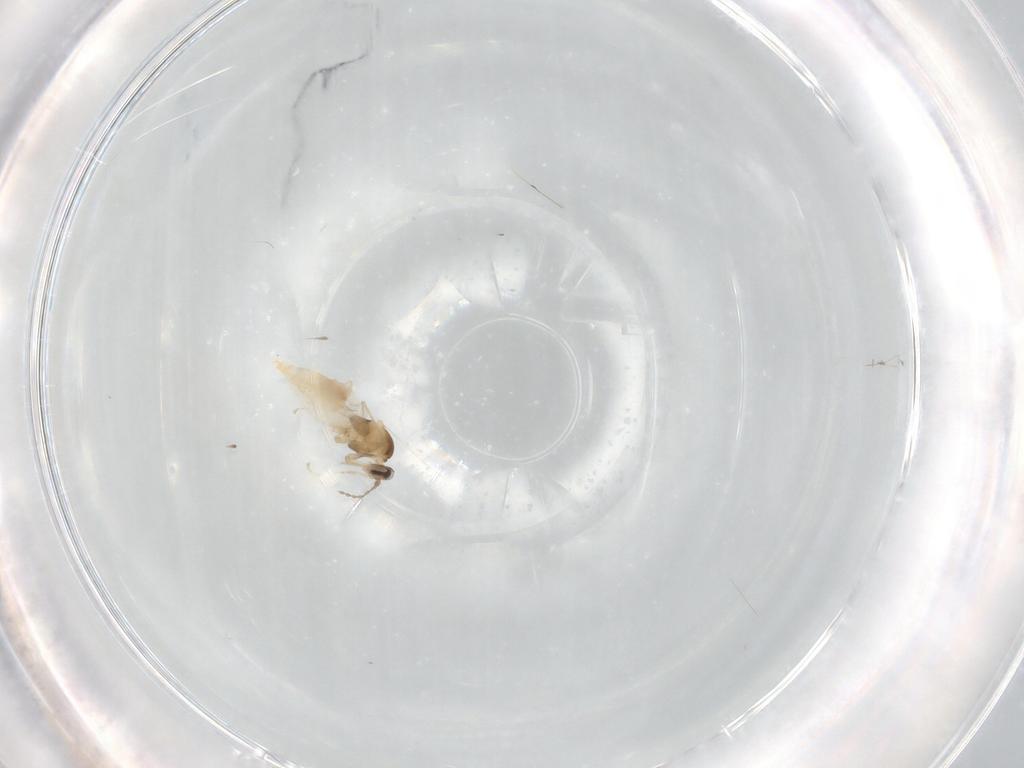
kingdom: Animalia
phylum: Arthropoda
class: Insecta
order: Diptera
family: Cecidomyiidae
